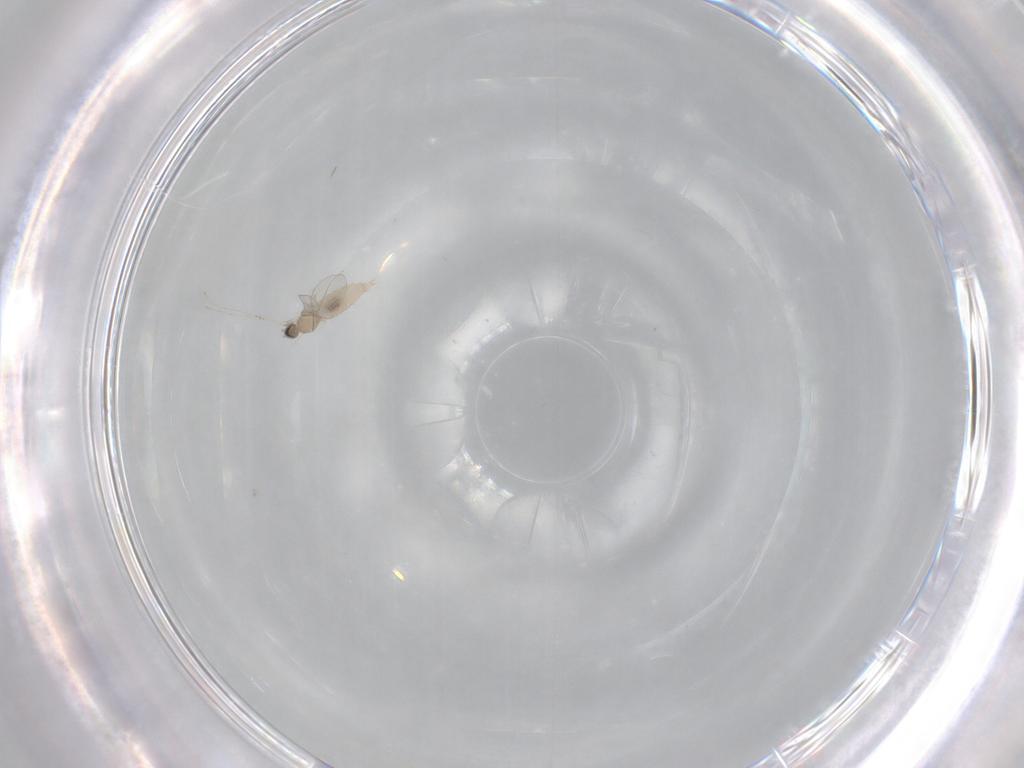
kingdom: Animalia
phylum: Arthropoda
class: Insecta
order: Diptera
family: Cecidomyiidae
